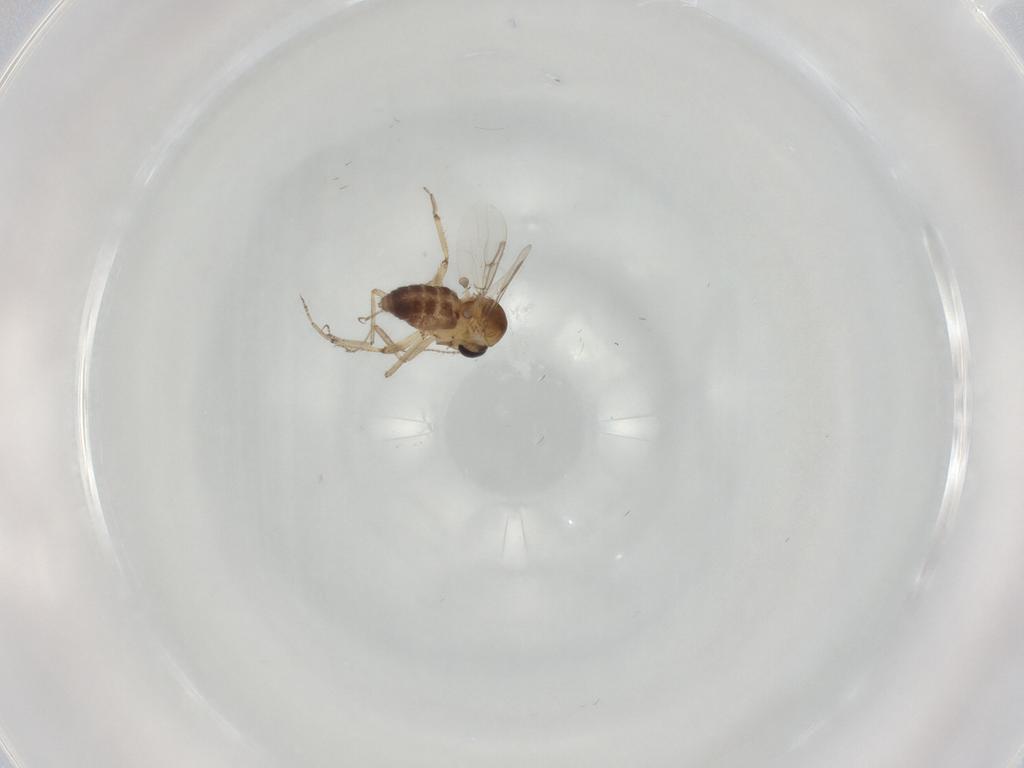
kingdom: Animalia
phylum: Arthropoda
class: Insecta
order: Diptera
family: Ceratopogonidae
